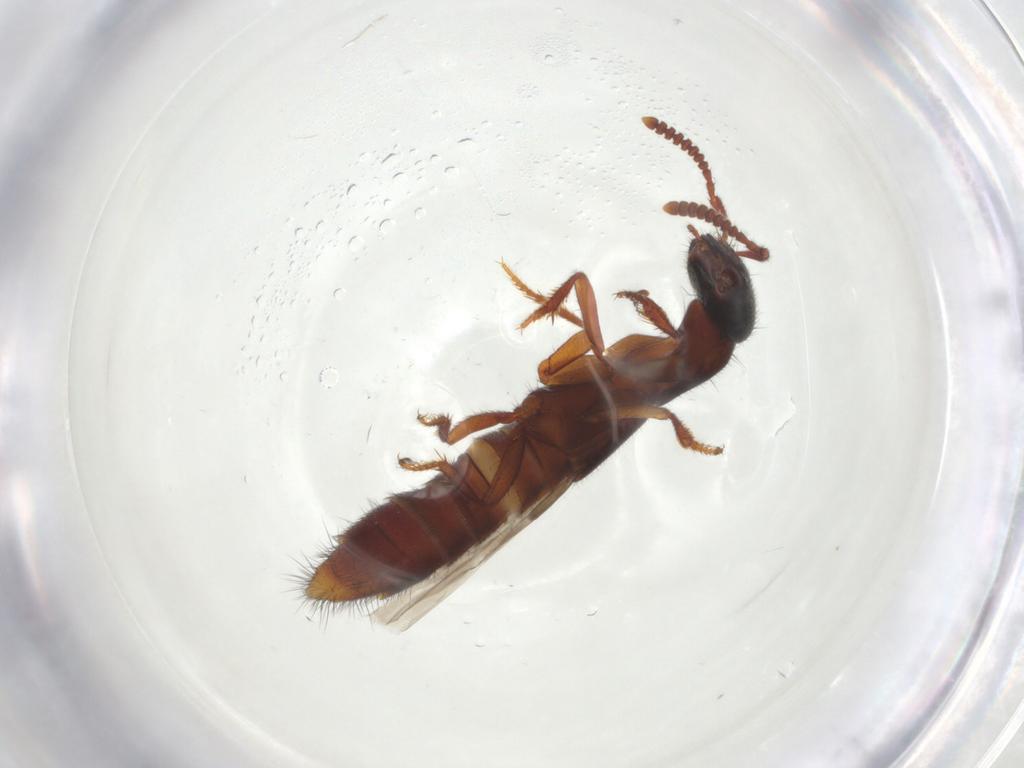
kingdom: Animalia
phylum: Arthropoda
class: Insecta
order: Coleoptera
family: Staphylinidae
